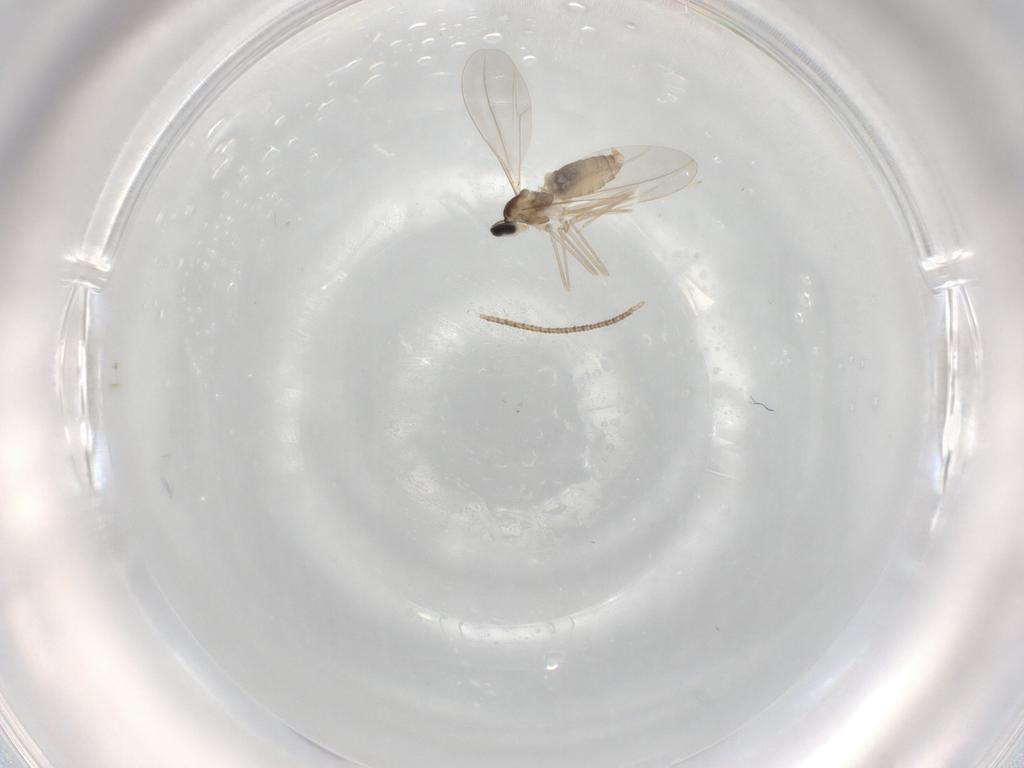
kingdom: Animalia
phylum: Arthropoda
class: Insecta
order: Diptera
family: Cecidomyiidae
